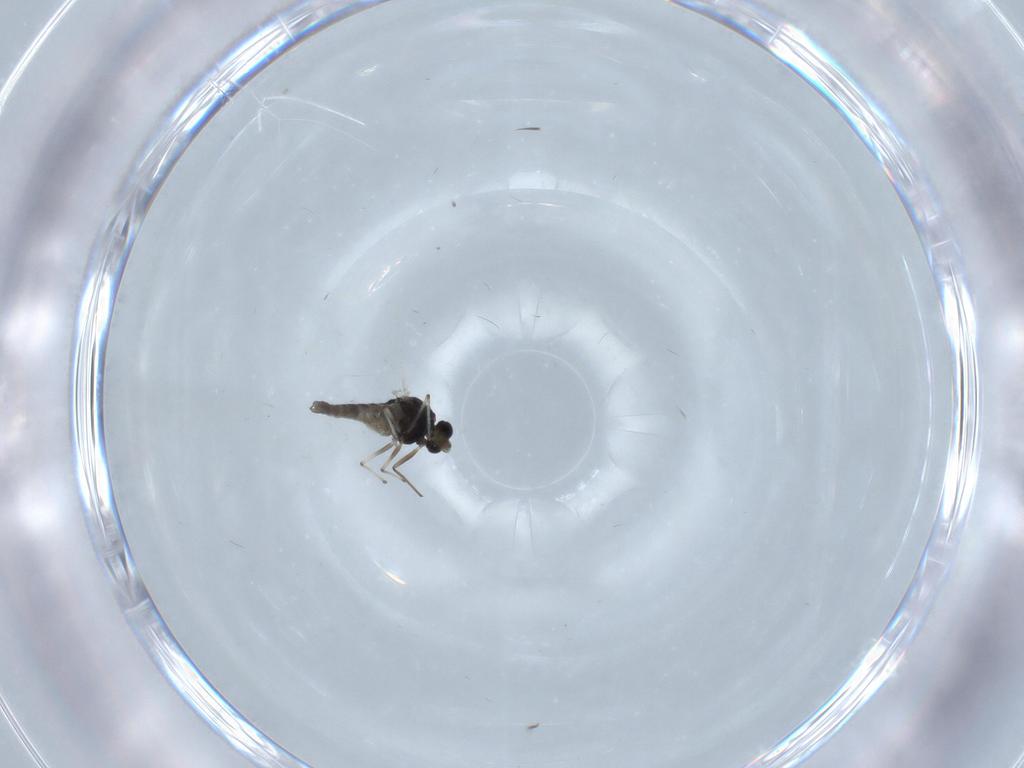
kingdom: Animalia
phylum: Arthropoda
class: Insecta
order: Diptera
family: Chironomidae
